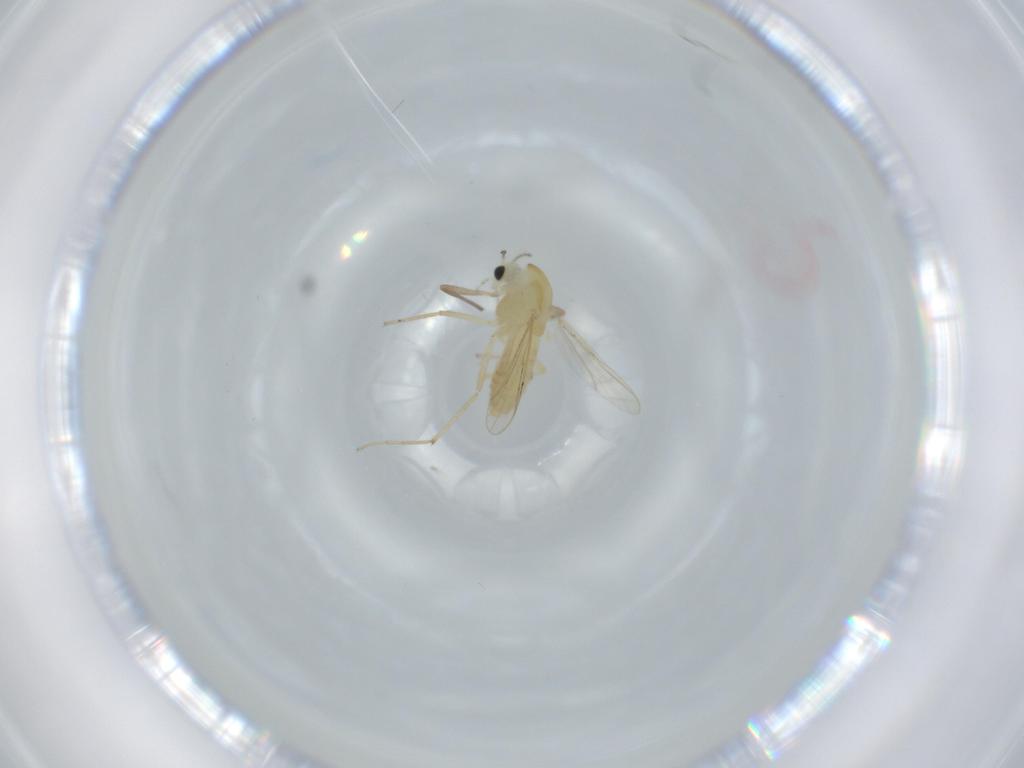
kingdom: Animalia
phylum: Arthropoda
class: Insecta
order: Diptera
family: Chironomidae
